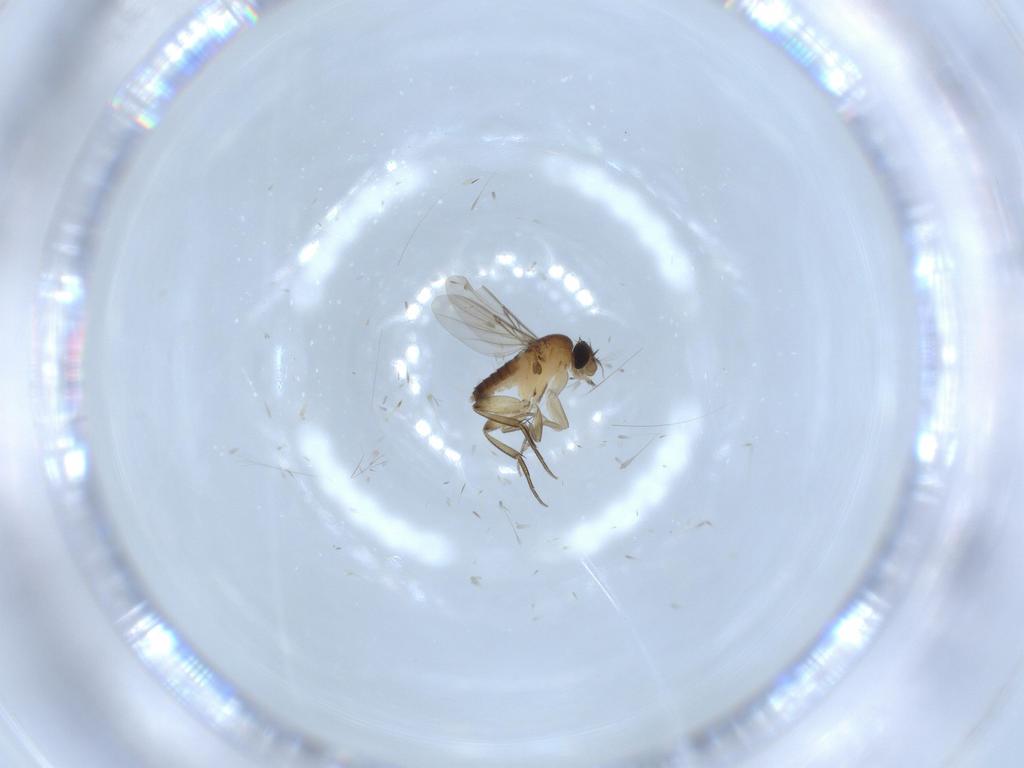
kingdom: Animalia
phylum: Arthropoda
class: Insecta
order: Diptera
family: Phoridae
